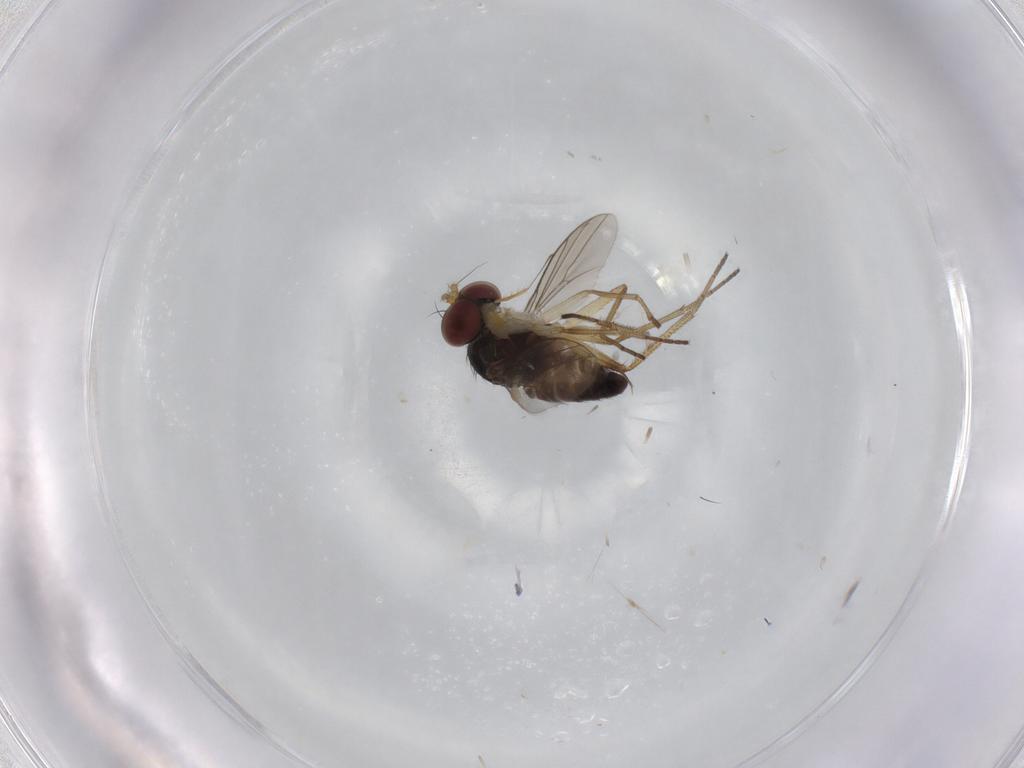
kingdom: Animalia
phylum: Arthropoda
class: Insecta
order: Diptera
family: Dolichopodidae
